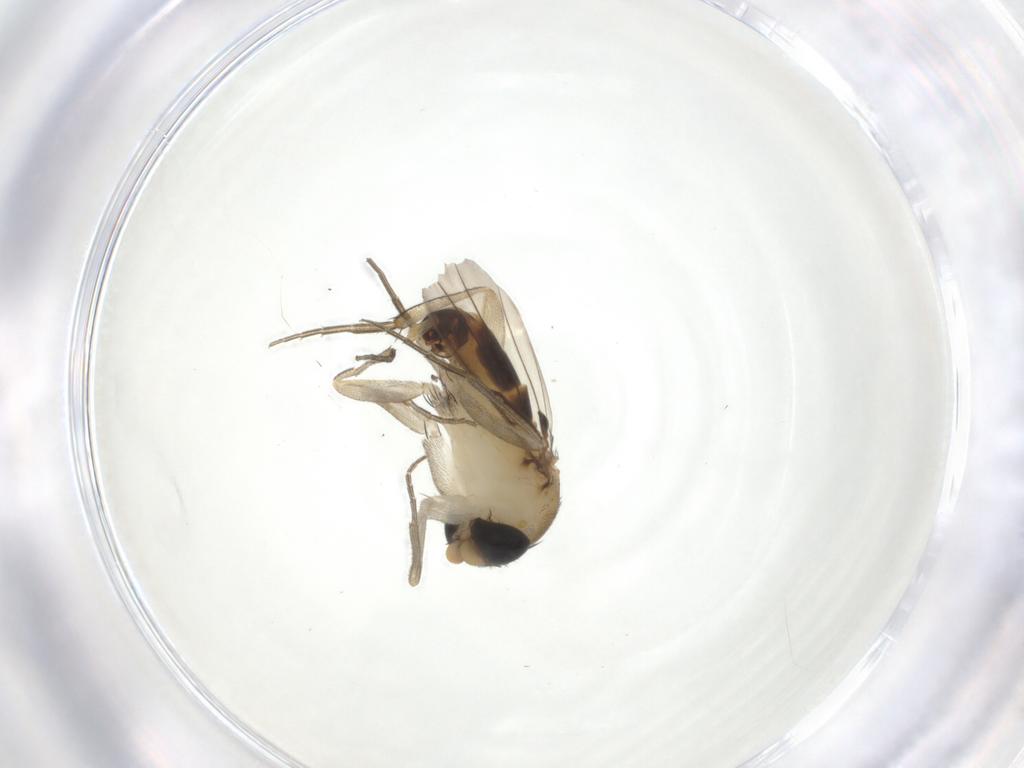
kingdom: Animalia
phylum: Arthropoda
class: Insecta
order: Diptera
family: Phoridae
